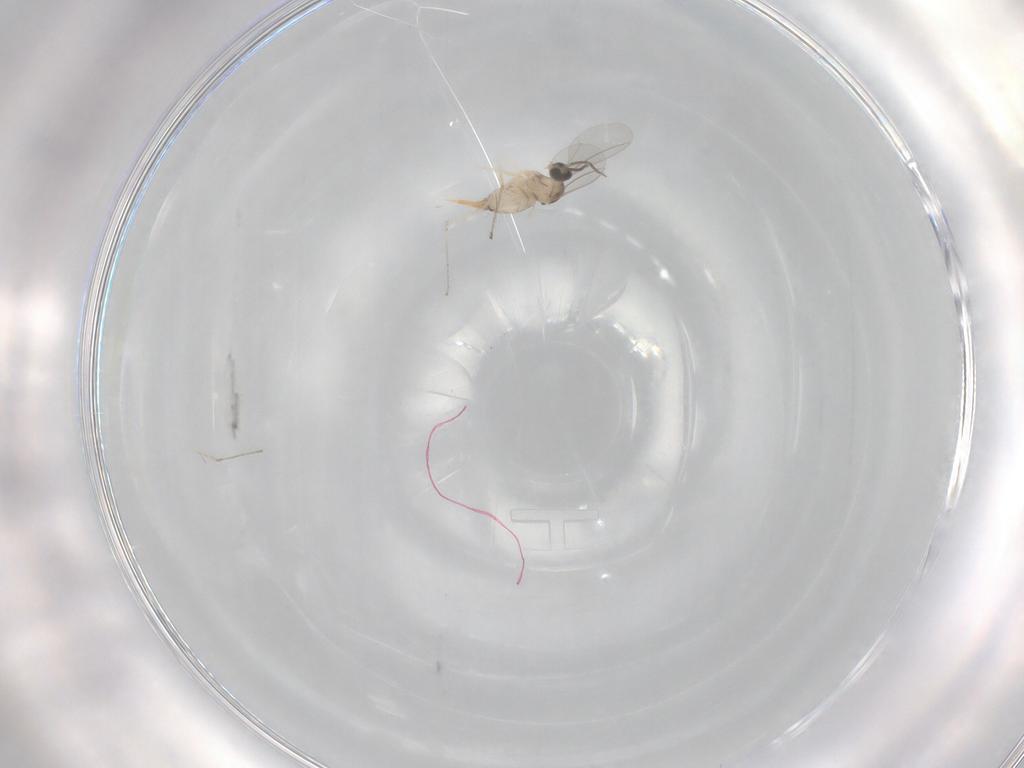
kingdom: Animalia
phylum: Arthropoda
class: Insecta
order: Diptera
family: Cecidomyiidae
